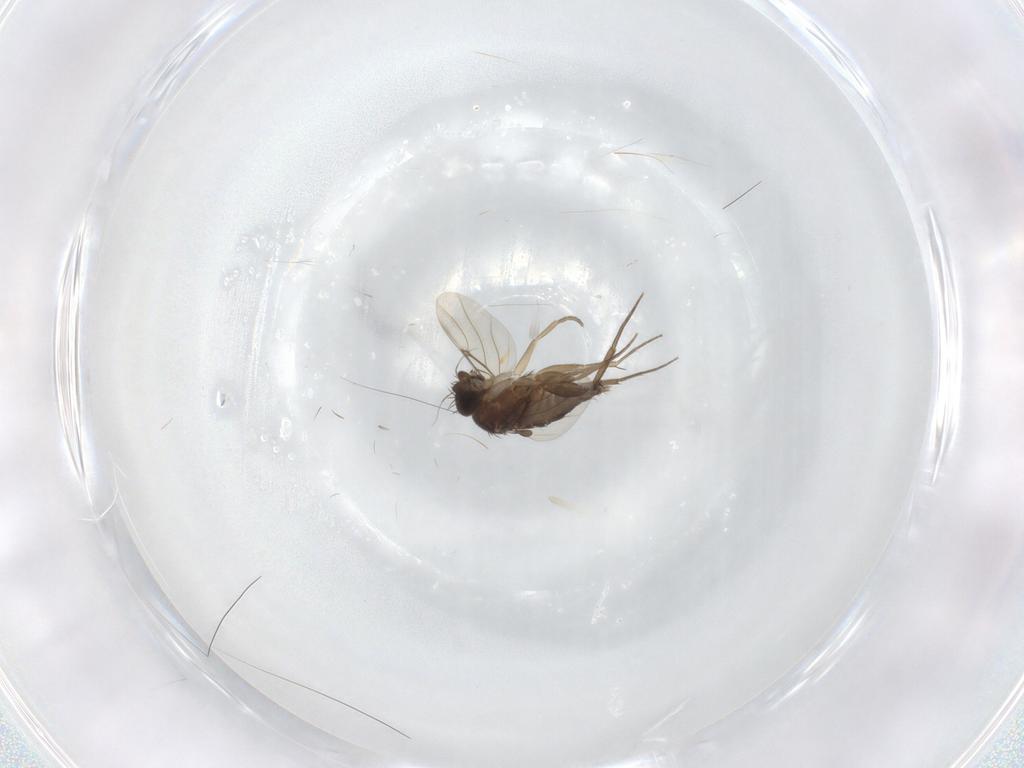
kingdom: Animalia
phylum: Arthropoda
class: Insecta
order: Diptera
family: Phoridae
